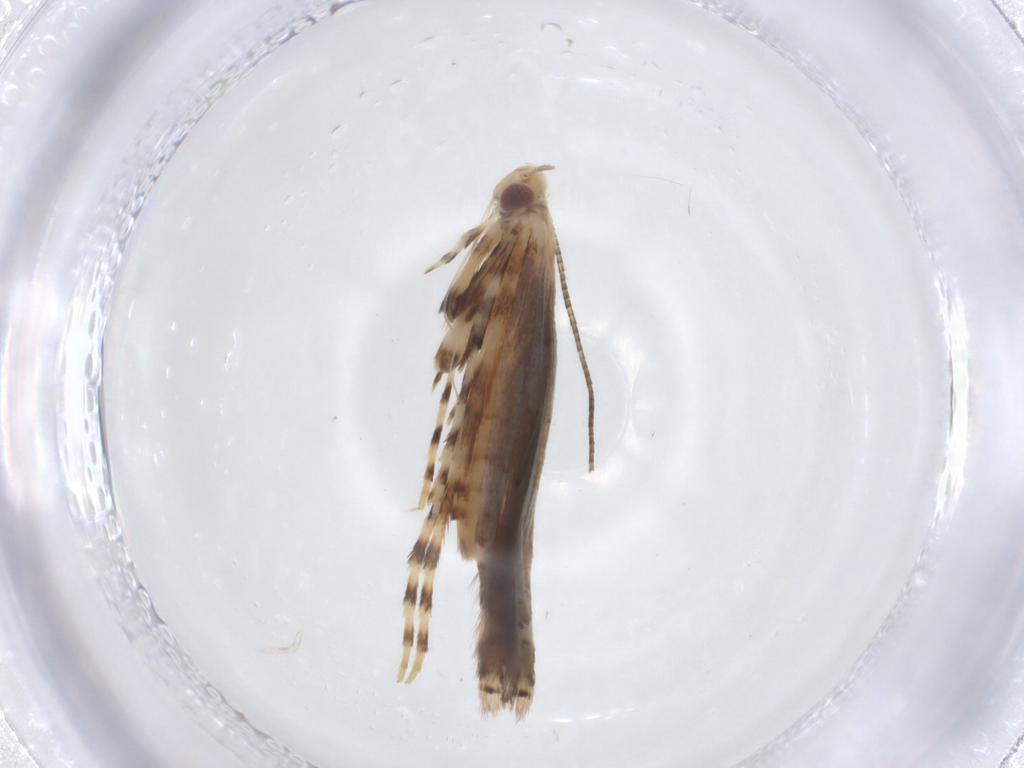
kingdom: Animalia
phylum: Arthropoda
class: Insecta
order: Lepidoptera
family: Gracillariidae
